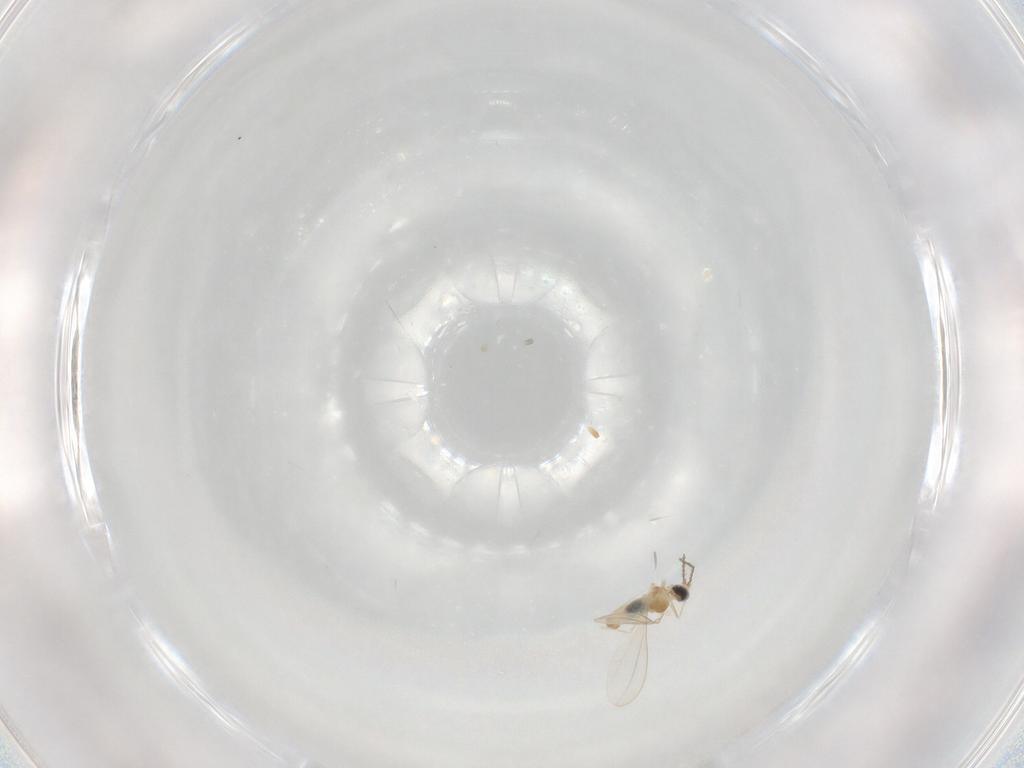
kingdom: Animalia
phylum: Arthropoda
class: Insecta
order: Diptera
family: Cecidomyiidae
